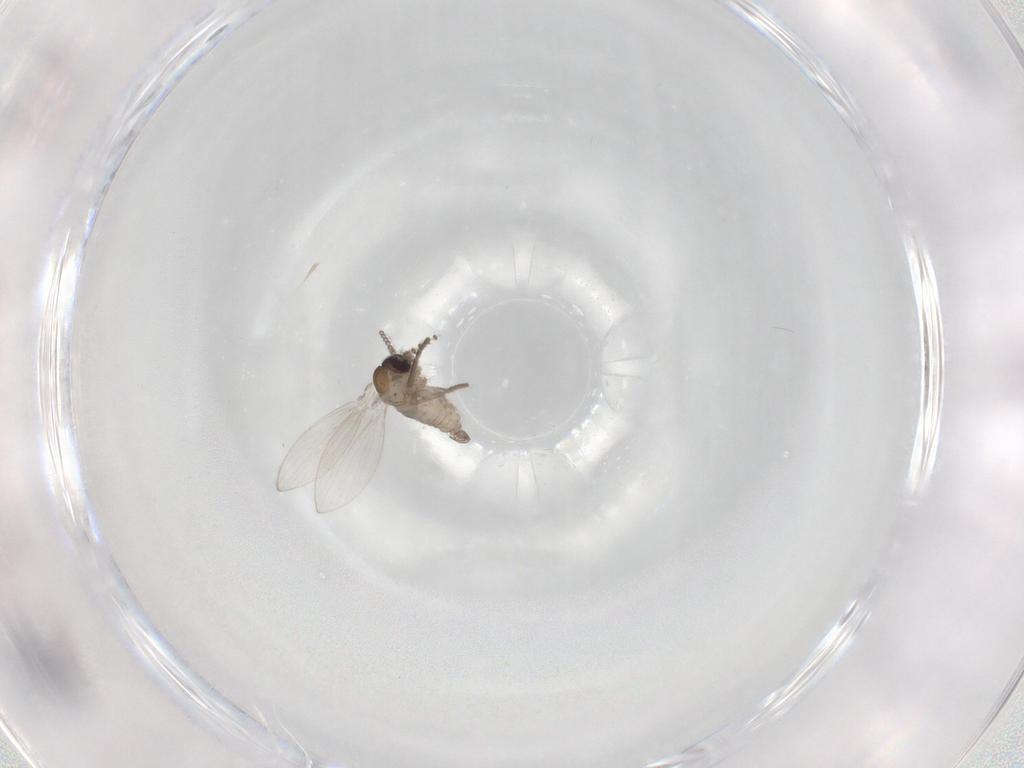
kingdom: Animalia
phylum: Arthropoda
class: Insecta
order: Diptera
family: Psychodidae
